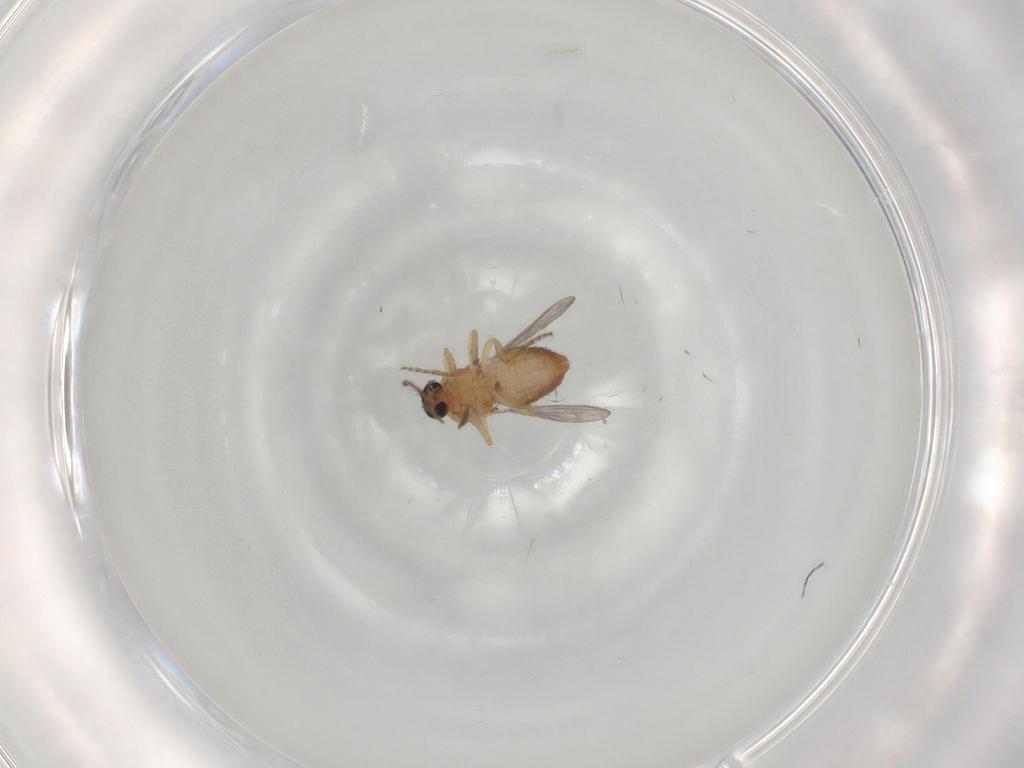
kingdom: Animalia
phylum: Arthropoda
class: Insecta
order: Diptera
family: Ceratopogonidae
